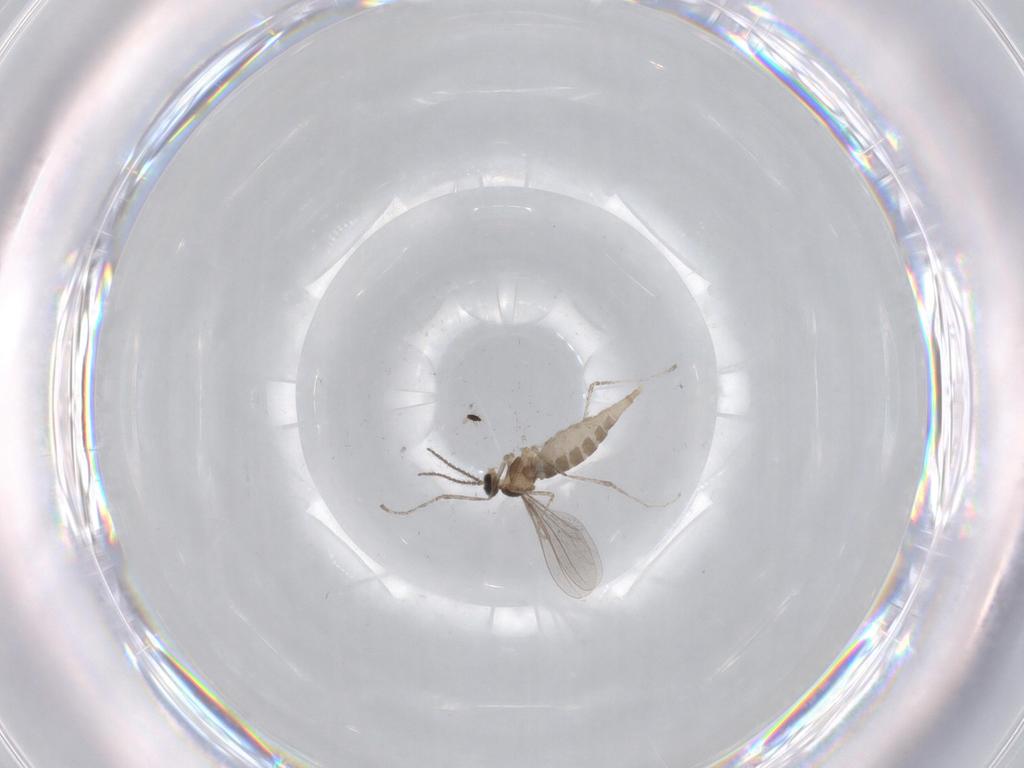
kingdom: Animalia
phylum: Arthropoda
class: Insecta
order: Diptera
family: Chironomidae
